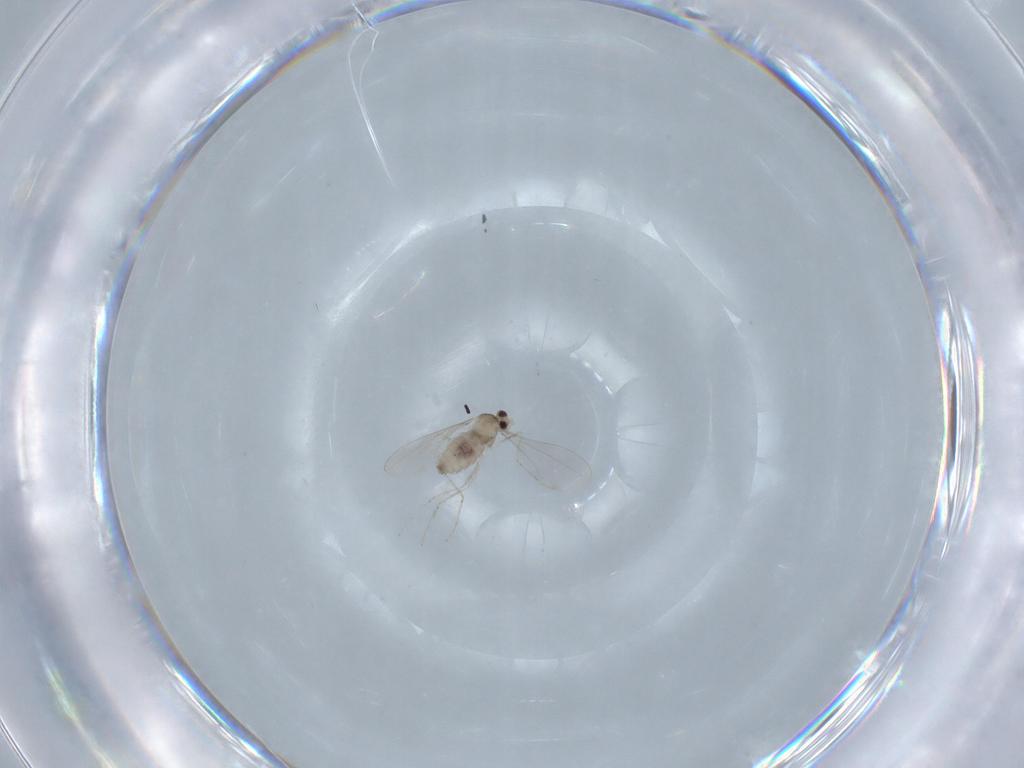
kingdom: Animalia
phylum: Arthropoda
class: Insecta
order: Diptera
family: Cecidomyiidae
